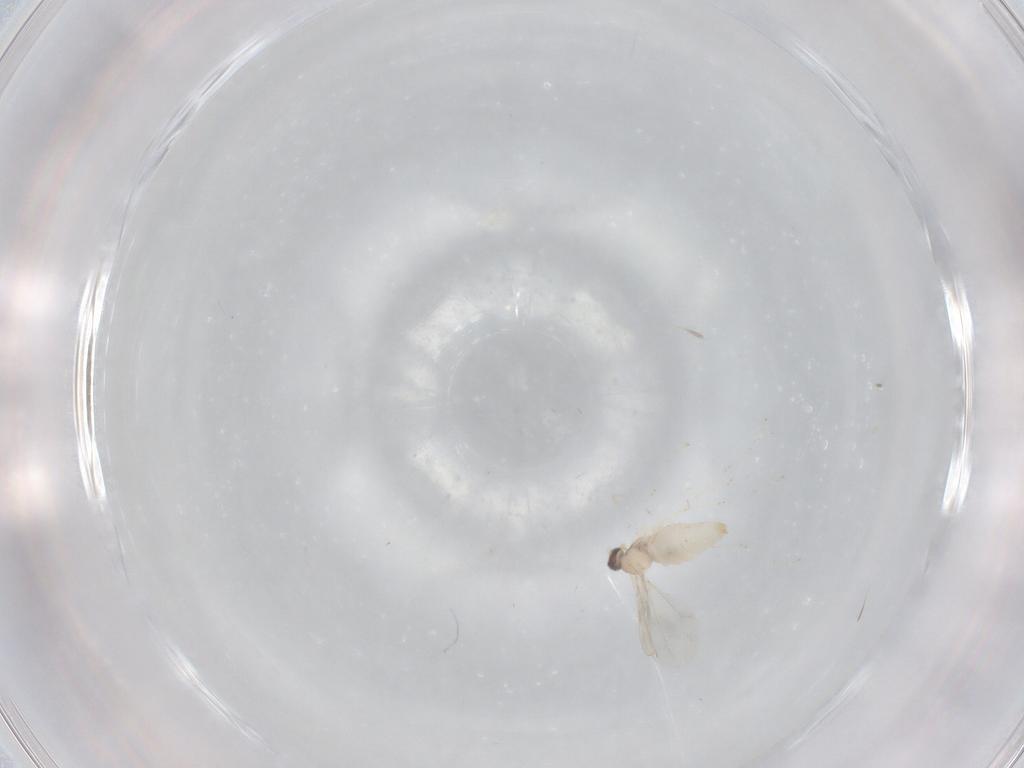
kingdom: Animalia
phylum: Arthropoda
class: Insecta
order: Diptera
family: Phoridae
